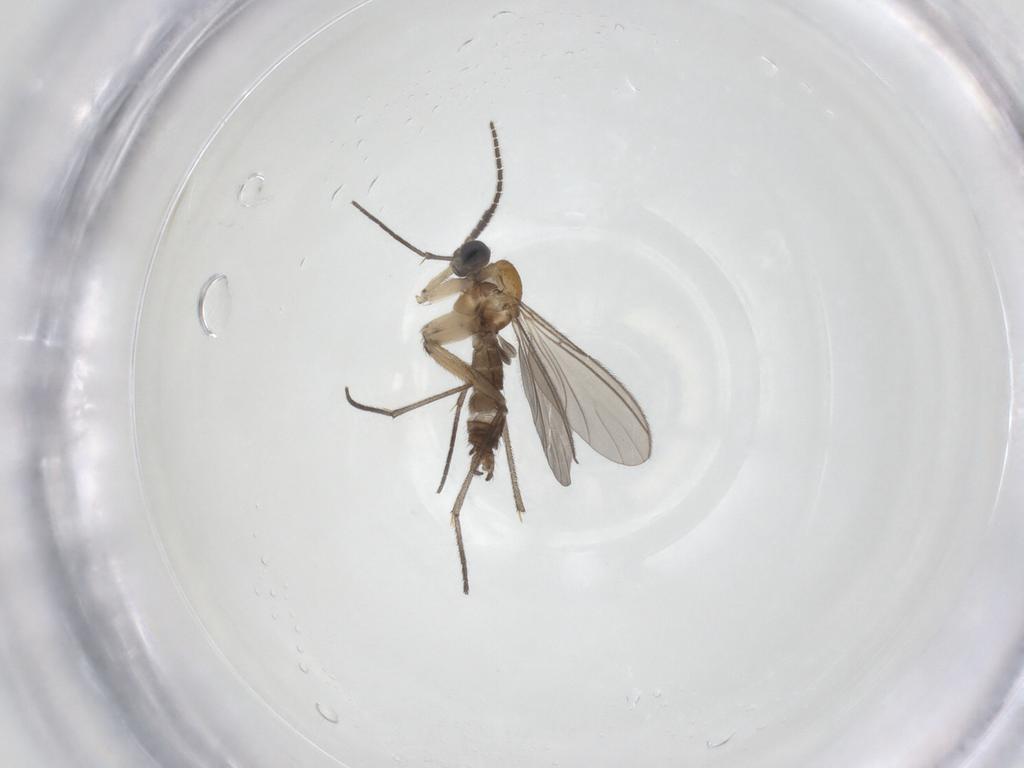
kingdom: Animalia
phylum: Arthropoda
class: Insecta
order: Diptera
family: Sciaridae
